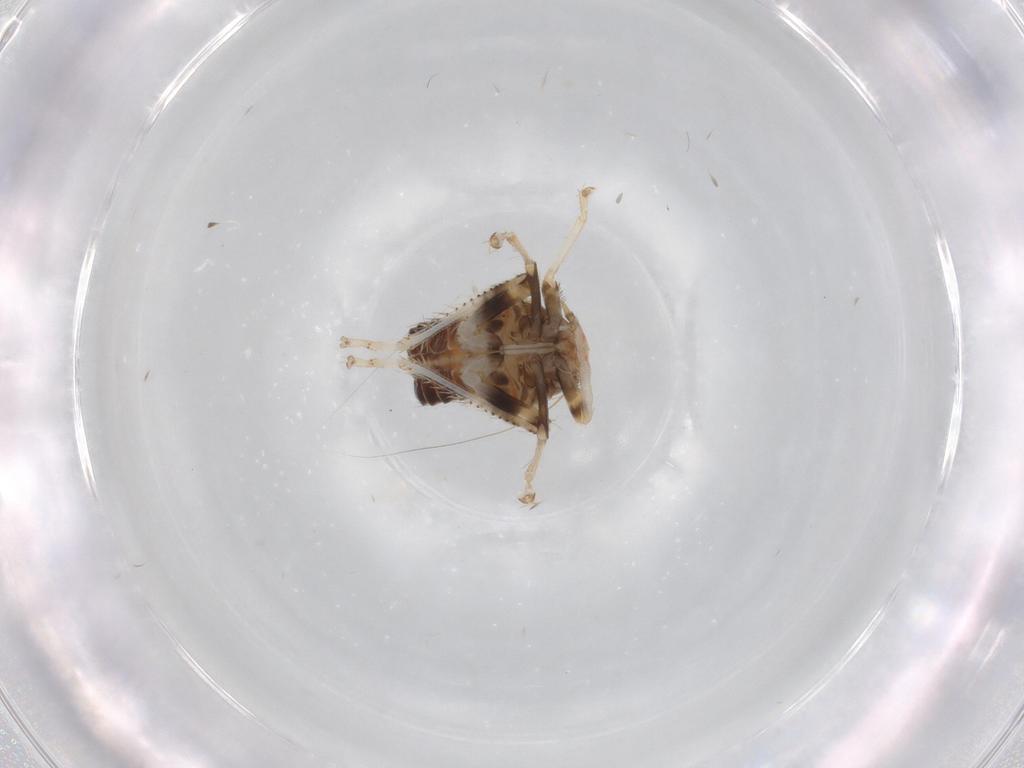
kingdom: Animalia
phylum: Arthropoda
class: Insecta
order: Hemiptera
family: Cicadellidae
